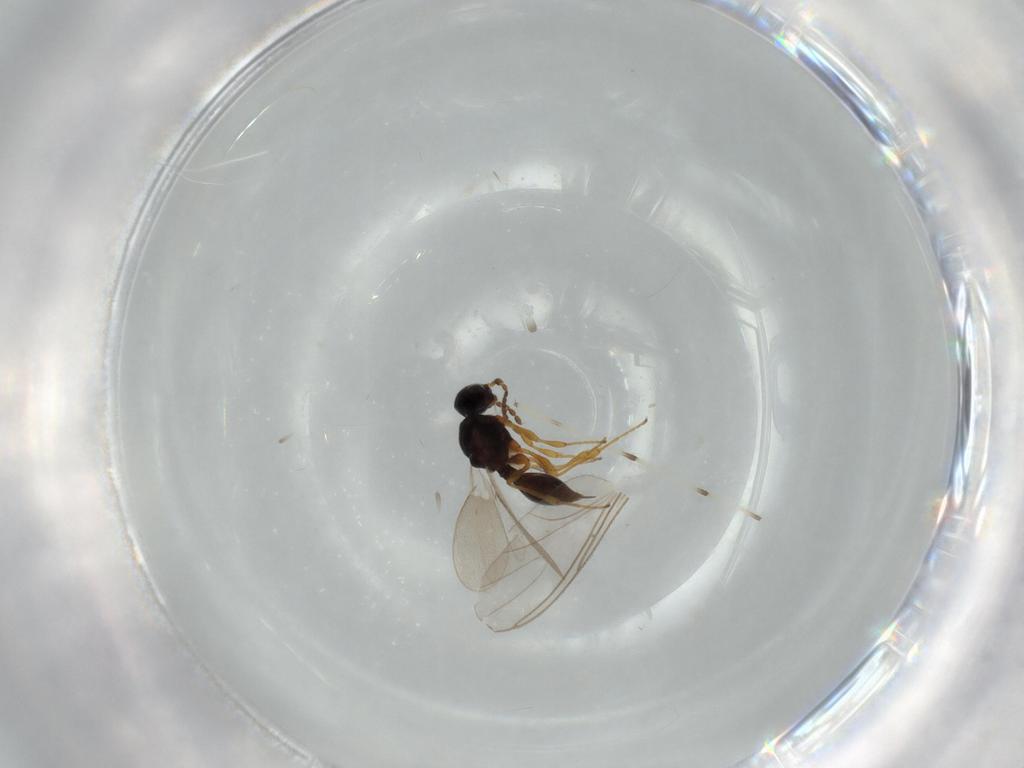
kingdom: Animalia
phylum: Arthropoda
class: Insecta
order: Diptera
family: Mythicomyiidae
